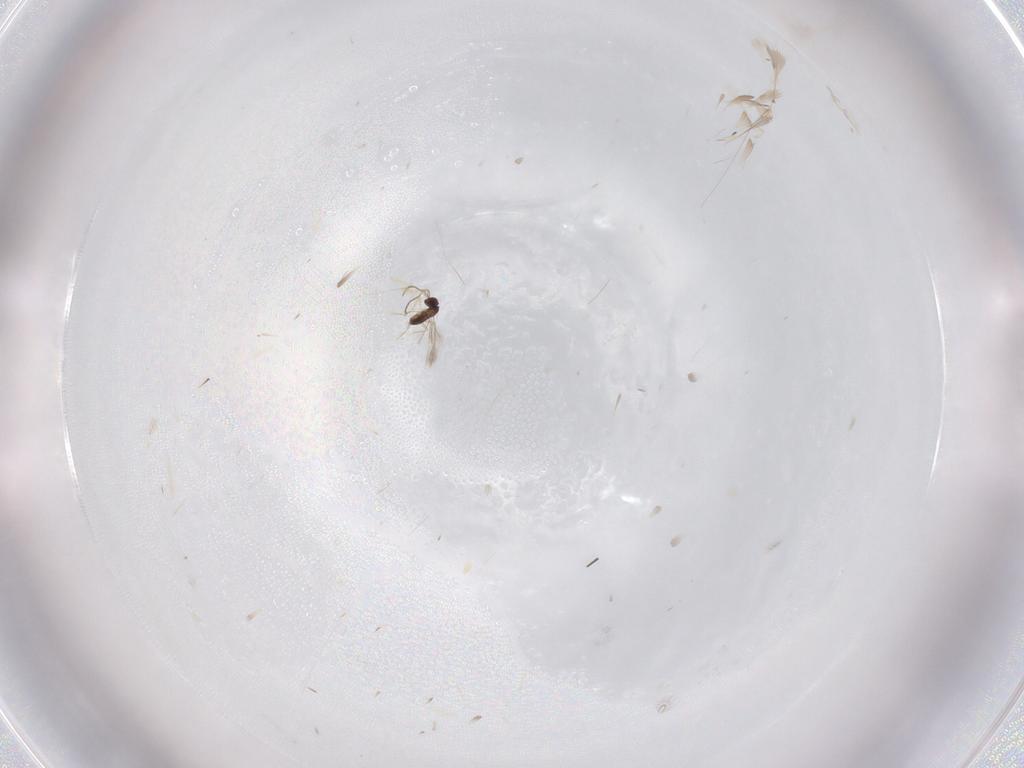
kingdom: Animalia
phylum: Arthropoda
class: Insecta
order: Hymenoptera
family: Mymaridae
